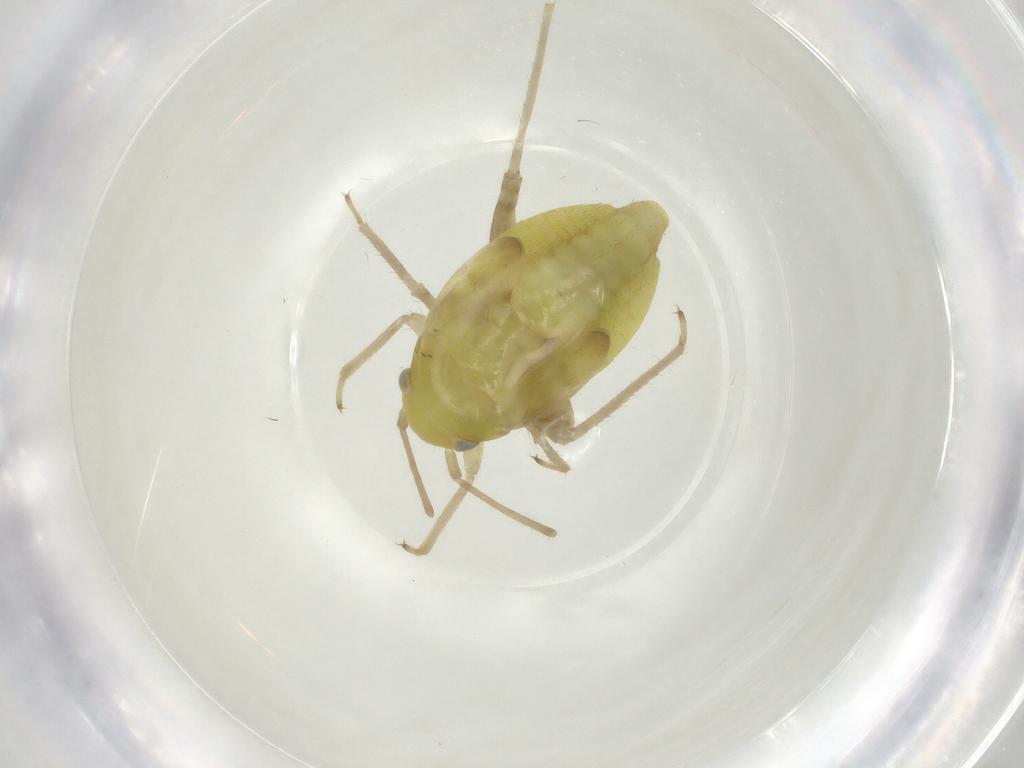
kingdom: Animalia
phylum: Arthropoda
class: Insecta
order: Hemiptera
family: Miridae
